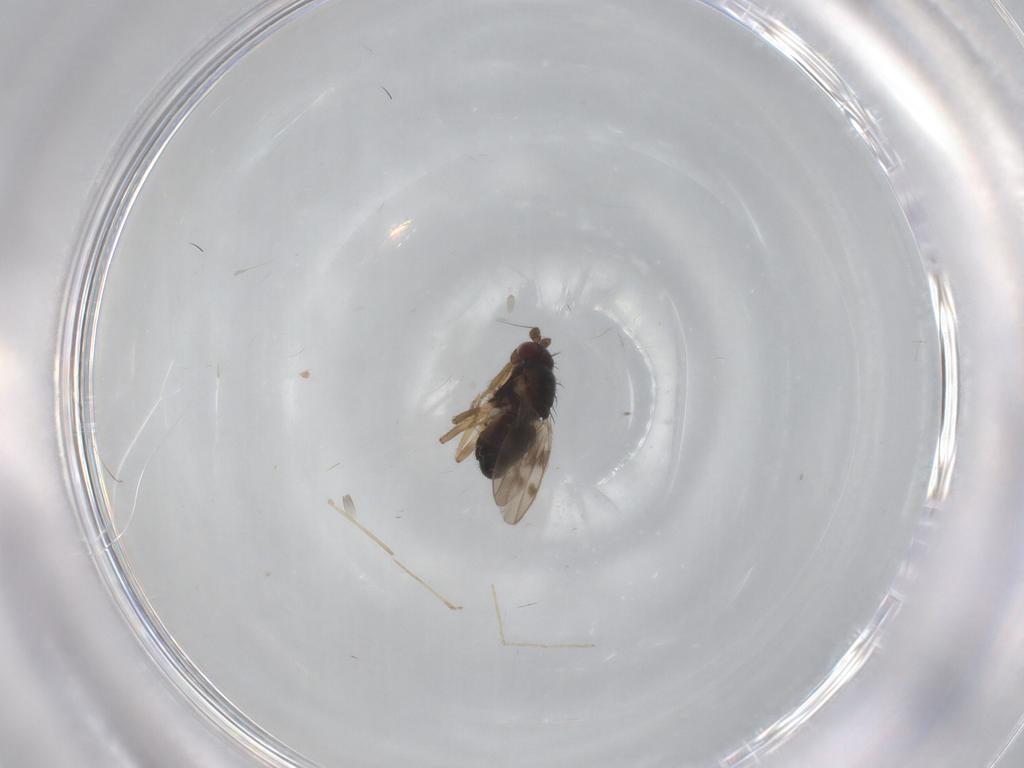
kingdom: Animalia
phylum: Arthropoda
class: Insecta
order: Diptera
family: Sphaeroceridae
